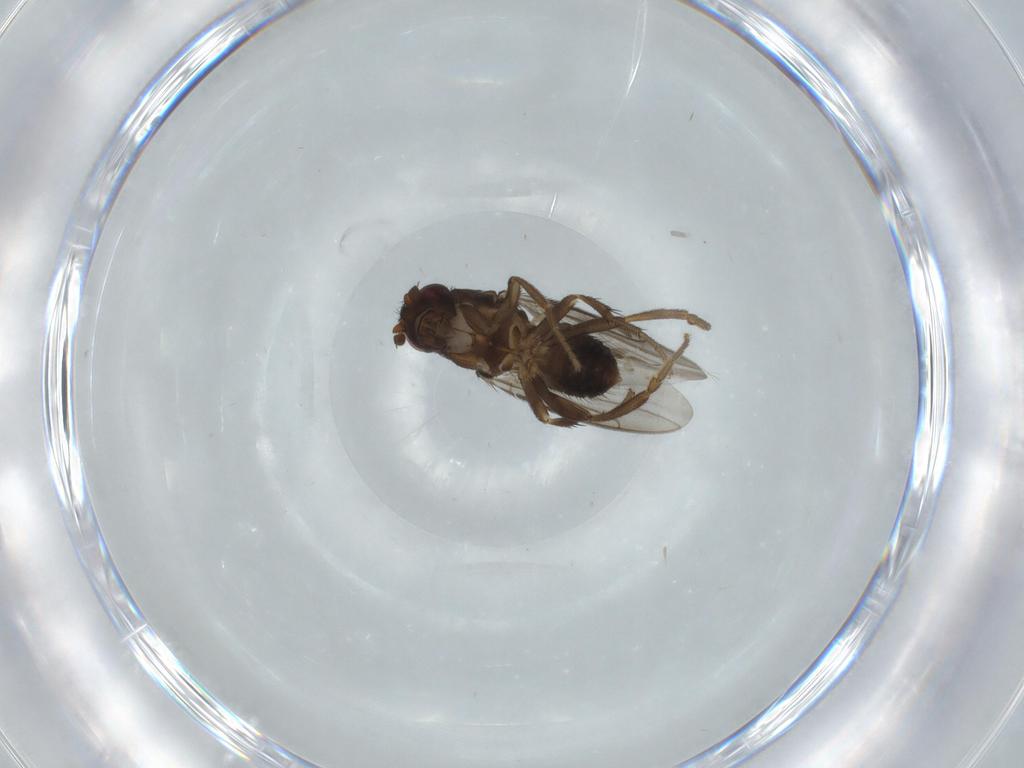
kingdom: Animalia
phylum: Arthropoda
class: Insecta
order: Diptera
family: Sphaeroceridae
